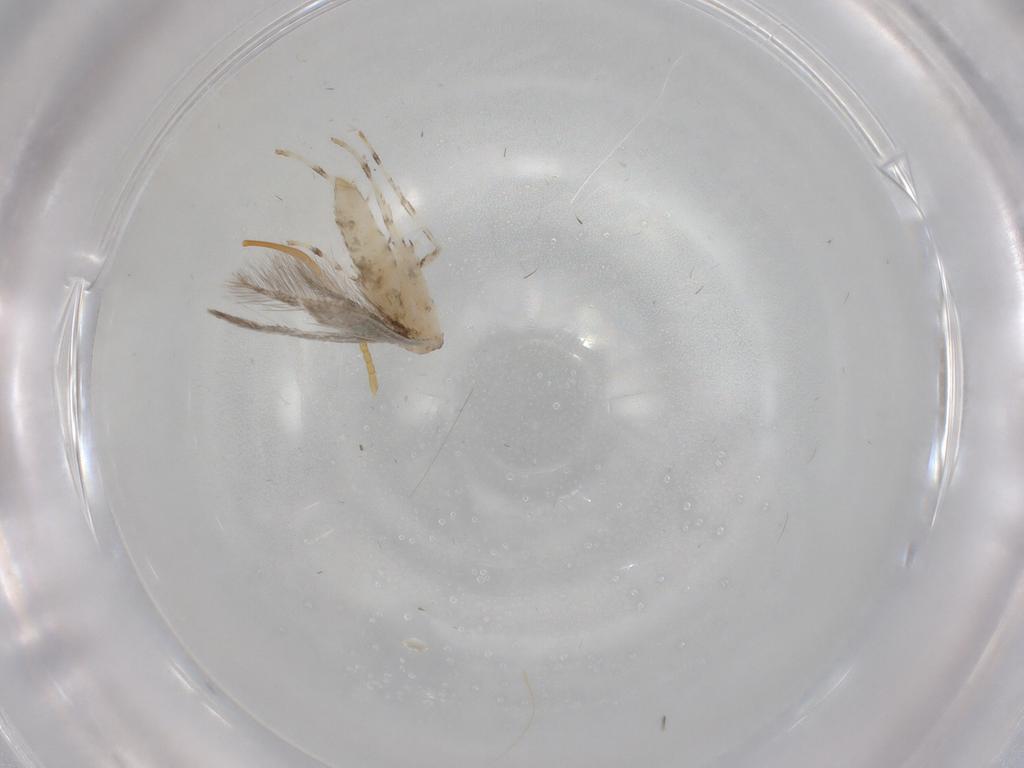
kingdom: Animalia
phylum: Arthropoda
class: Insecta
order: Lepidoptera
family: Gracillariidae
